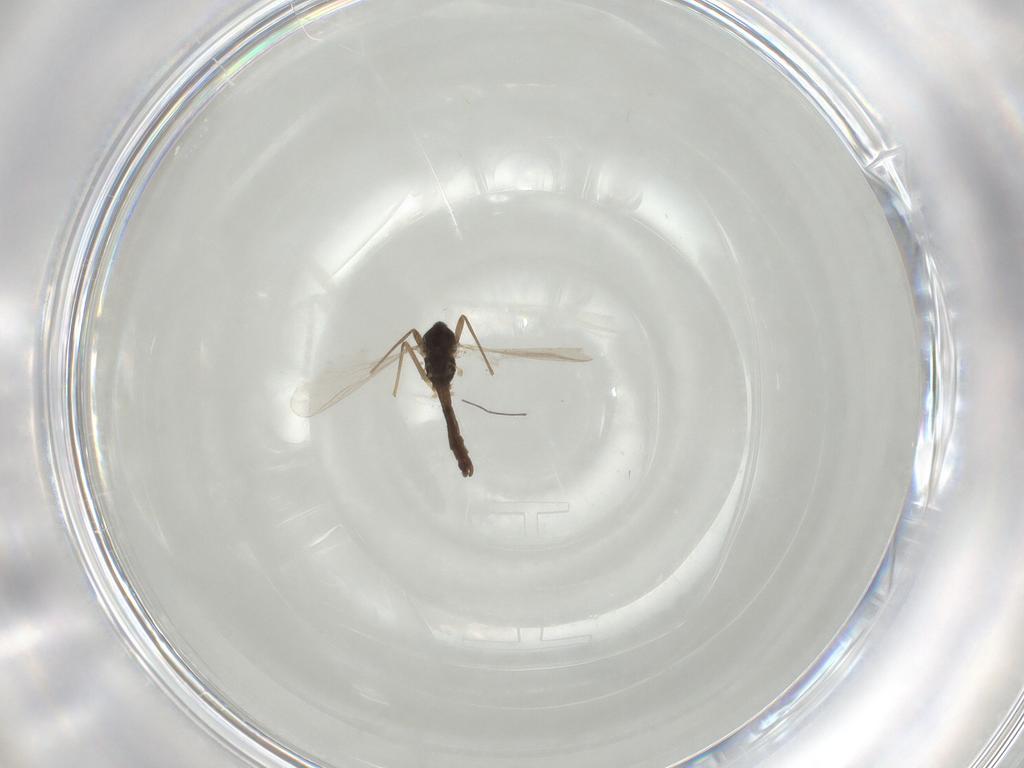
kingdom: Animalia
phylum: Arthropoda
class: Insecta
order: Diptera
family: Chironomidae
